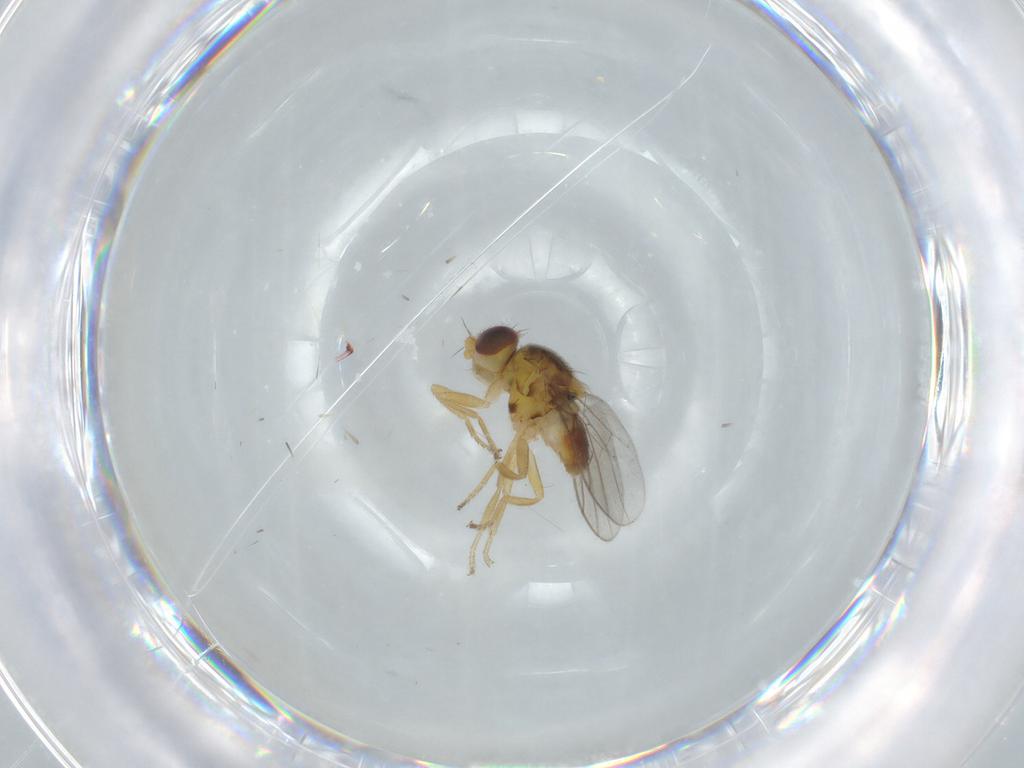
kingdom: Animalia
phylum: Arthropoda
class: Insecta
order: Diptera
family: Chloropidae
